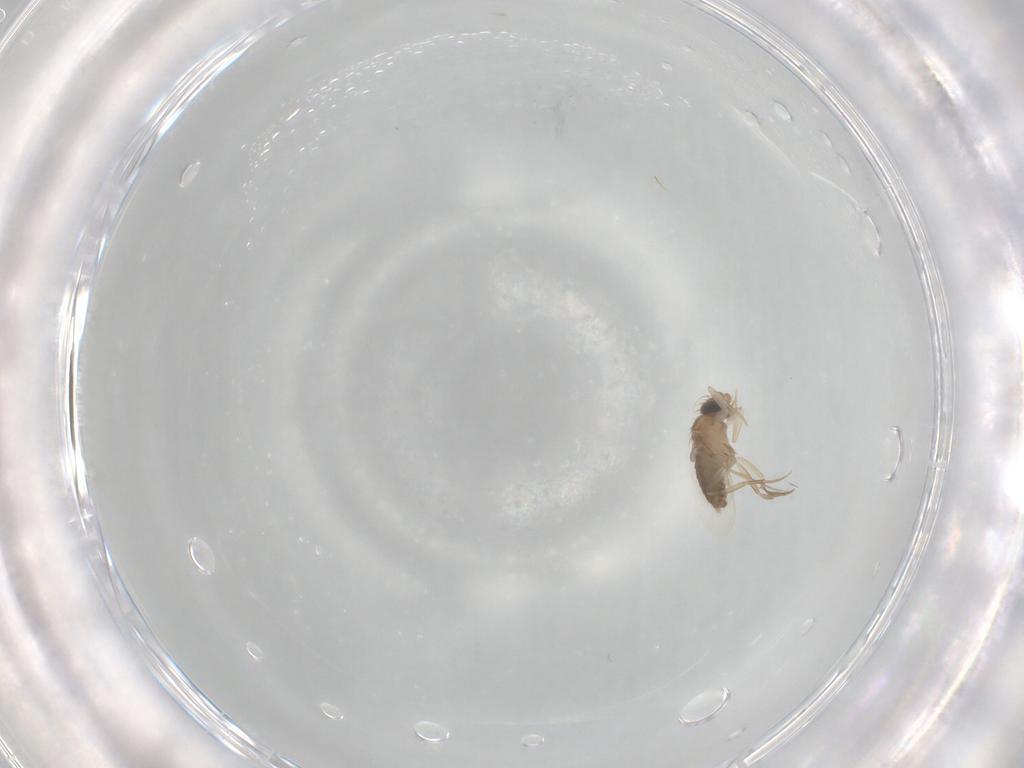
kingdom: Animalia
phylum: Arthropoda
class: Insecta
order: Diptera
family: Phoridae
